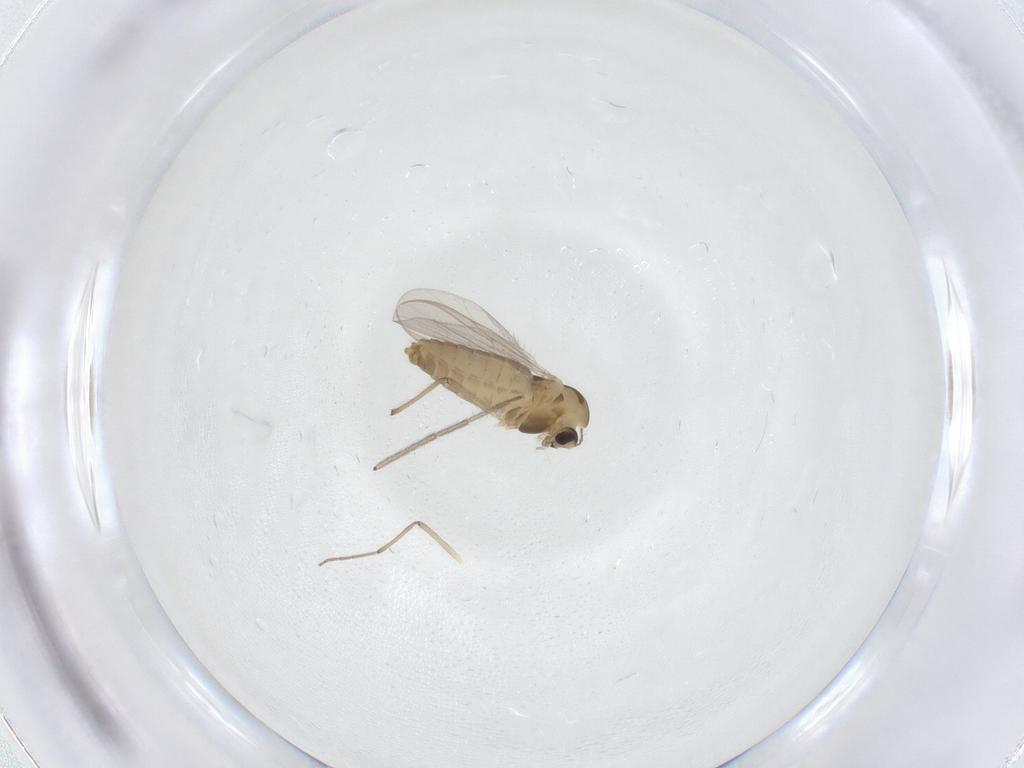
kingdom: Animalia
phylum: Arthropoda
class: Insecta
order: Diptera
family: Chironomidae
